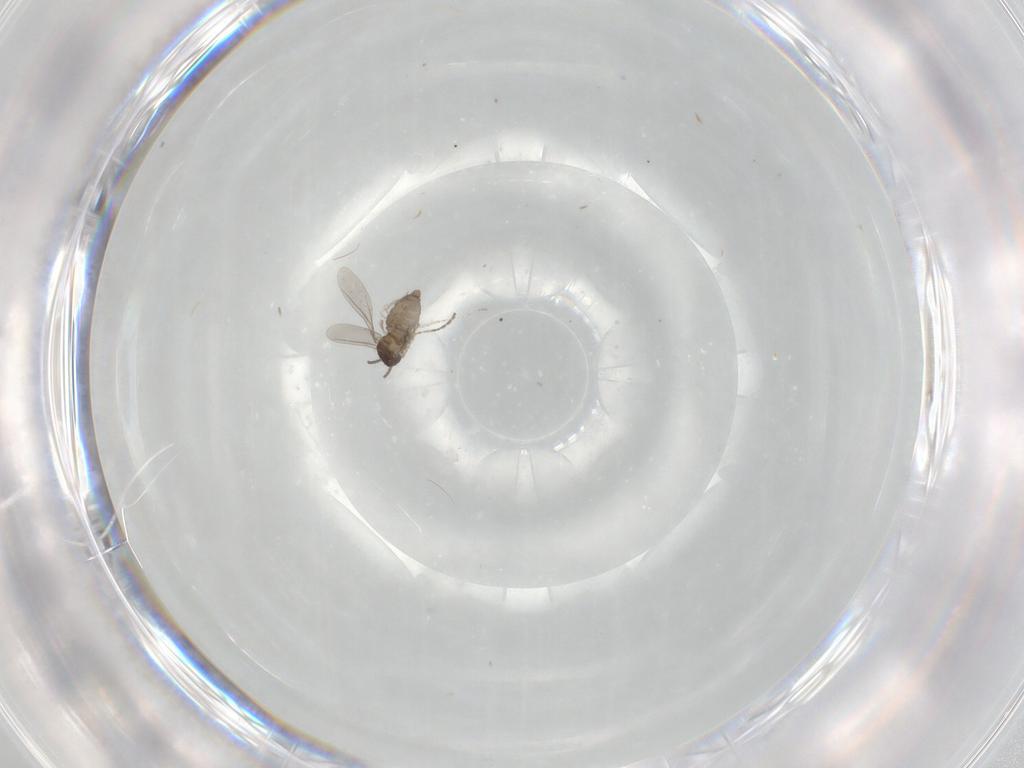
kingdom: Animalia
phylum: Arthropoda
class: Insecta
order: Diptera
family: Cecidomyiidae
